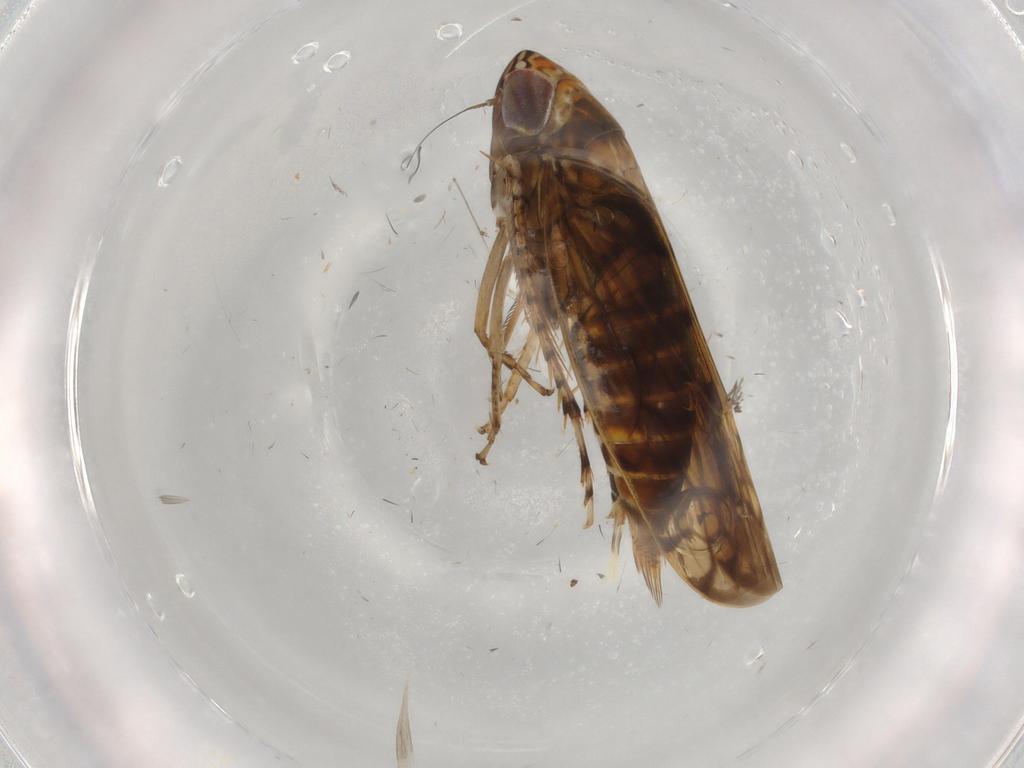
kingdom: Animalia
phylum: Arthropoda
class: Insecta
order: Hemiptera
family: Cicadellidae
